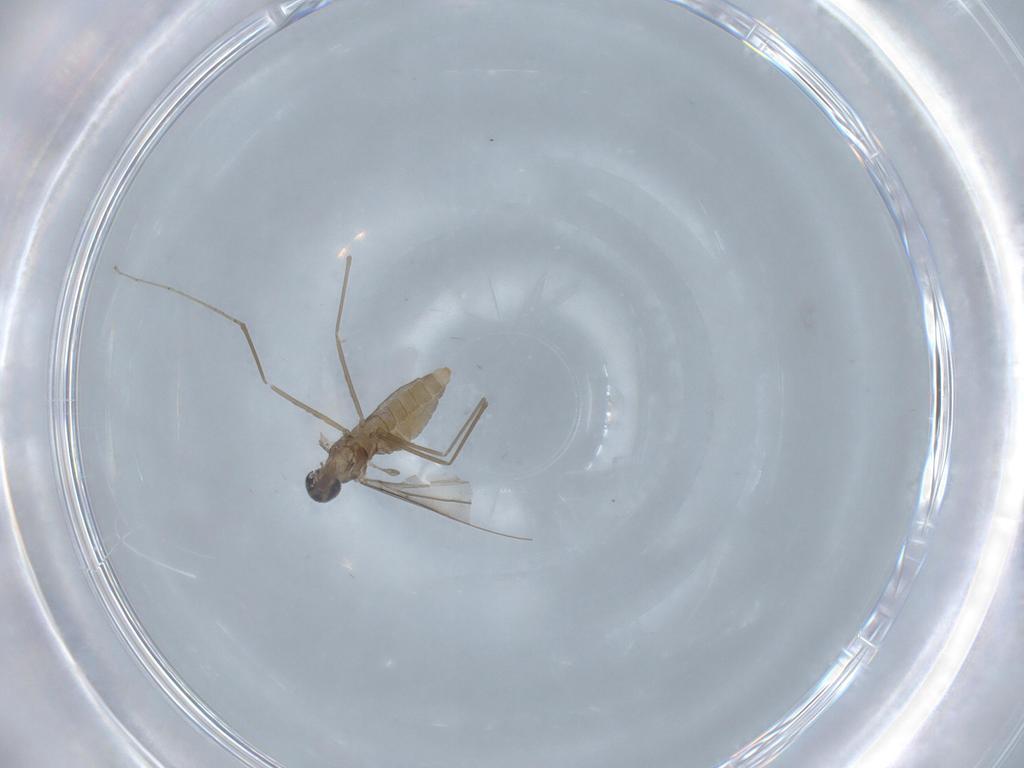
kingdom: Animalia
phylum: Arthropoda
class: Insecta
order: Diptera
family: Cecidomyiidae
